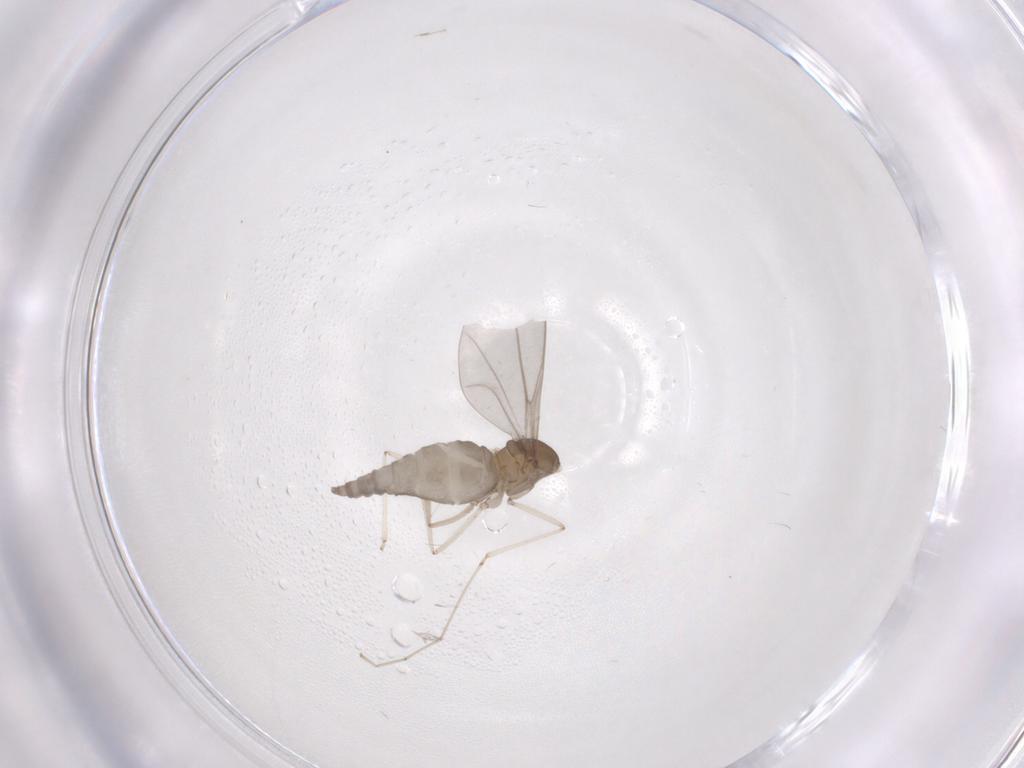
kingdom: Animalia
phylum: Arthropoda
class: Insecta
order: Diptera
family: Cecidomyiidae
